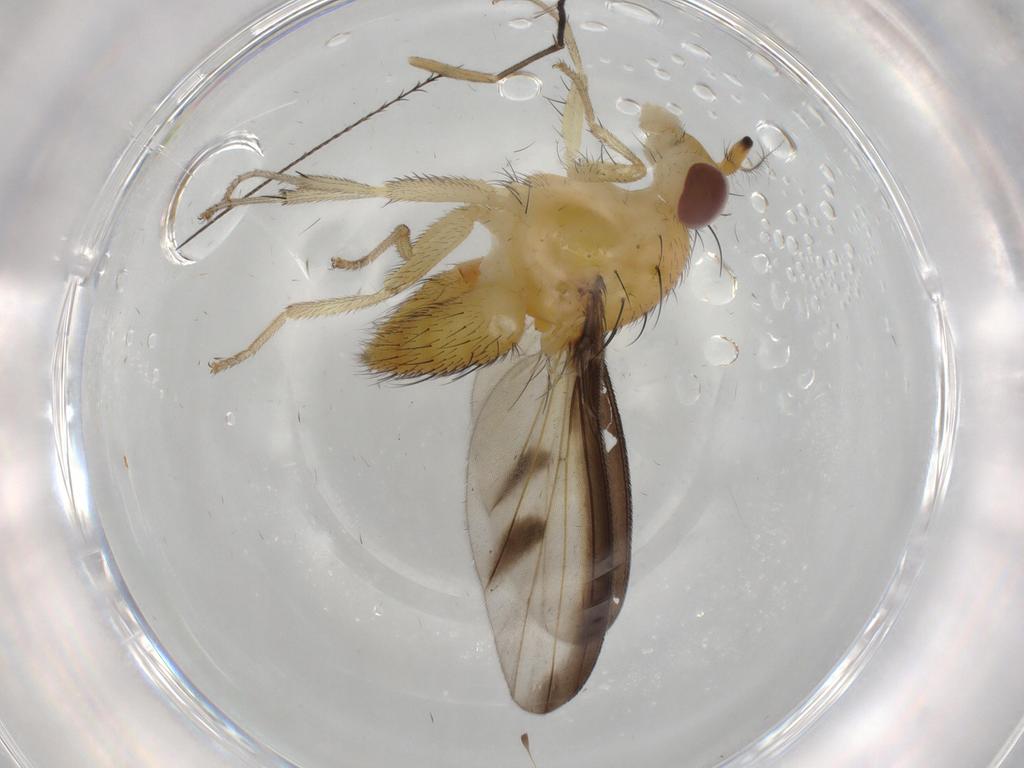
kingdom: Animalia
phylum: Arthropoda
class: Insecta
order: Diptera
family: Lauxaniidae
